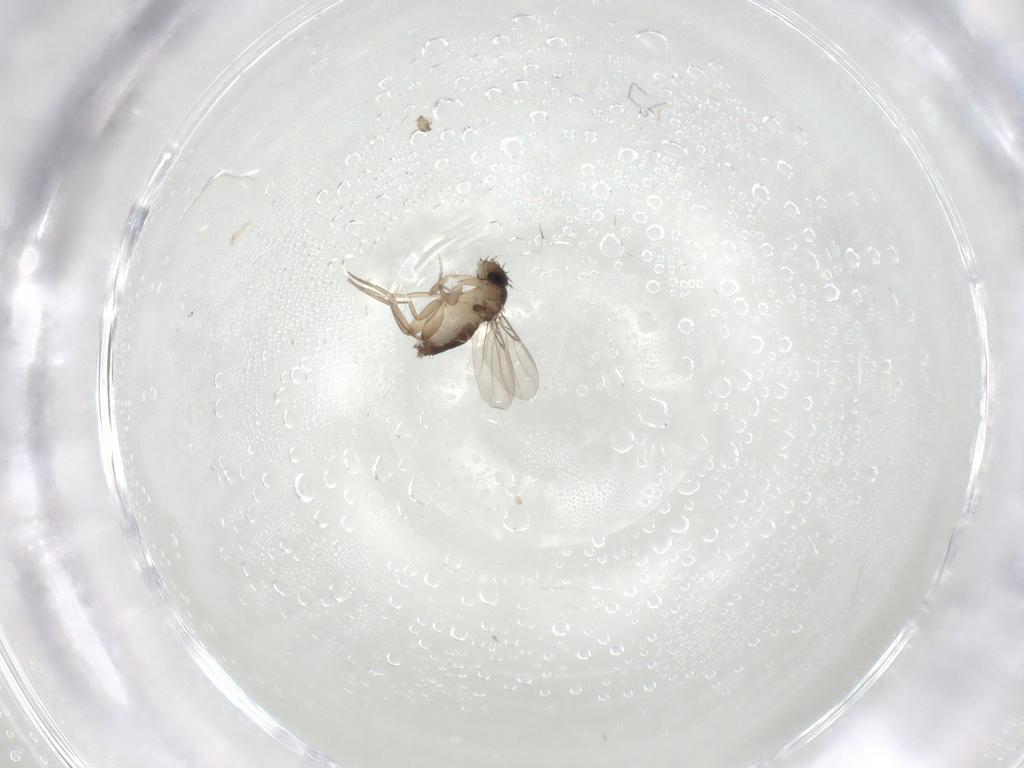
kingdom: Animalia
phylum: Arthropoda
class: Insecta
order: Diptera
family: Phoridae
